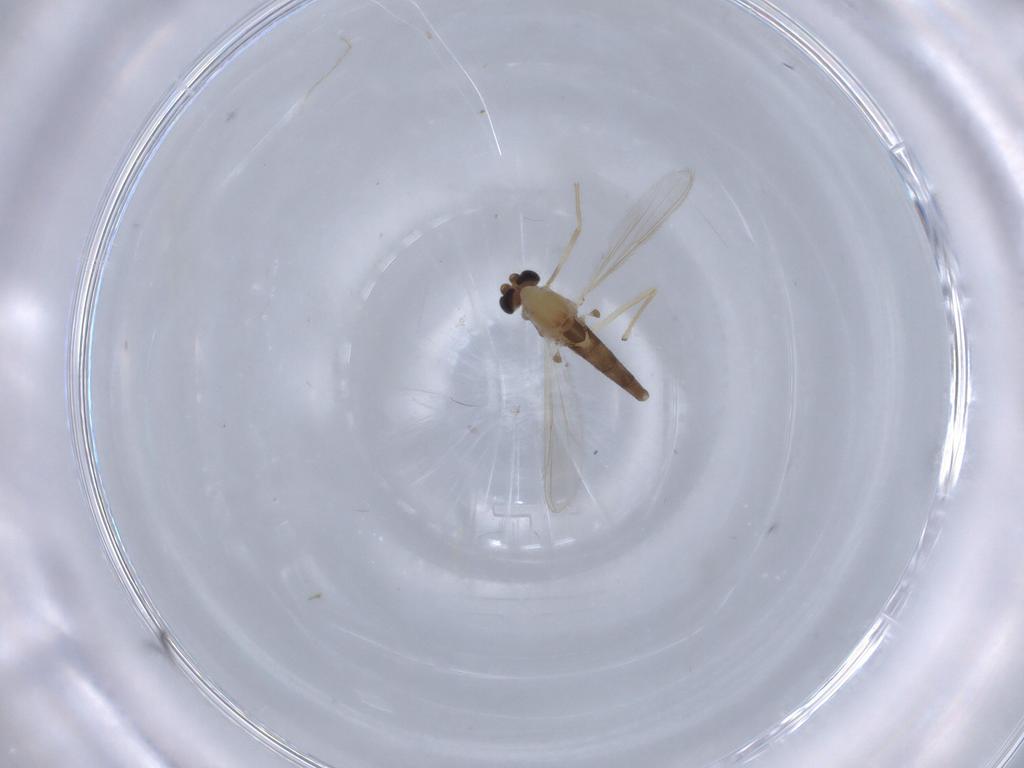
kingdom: Animalia
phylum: Arthropoda
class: Insecta
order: Diptera
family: Chironomidae
